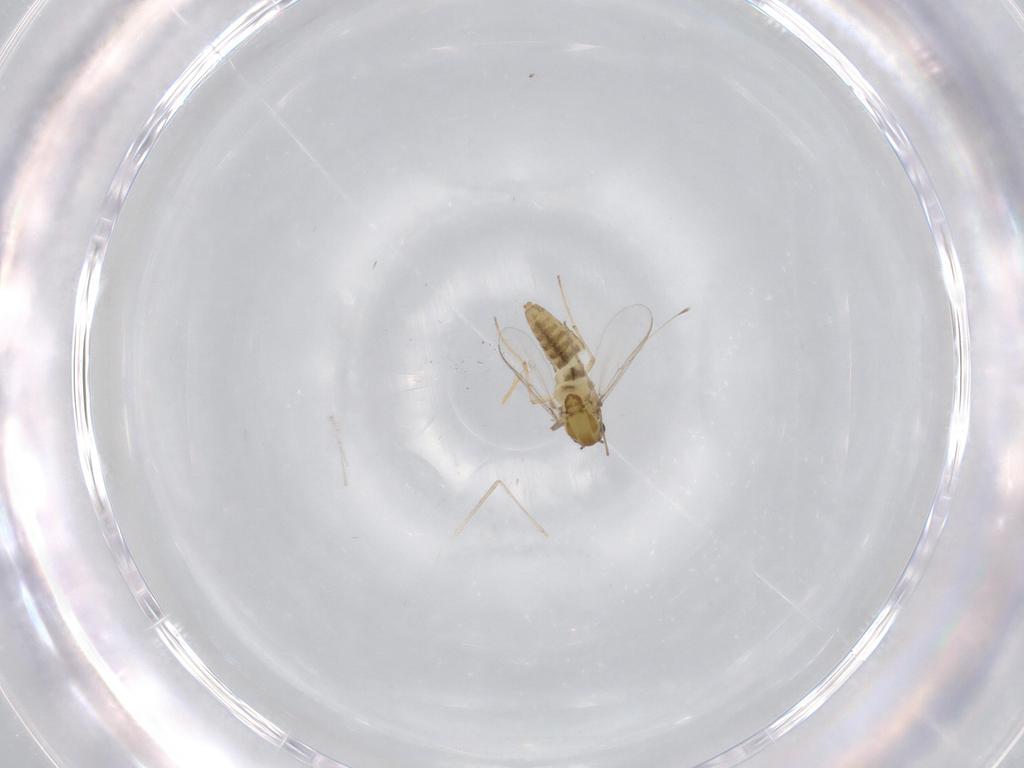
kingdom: Animalia
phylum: Arthropoda
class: Insecta
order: Diptera
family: Chironomidae
